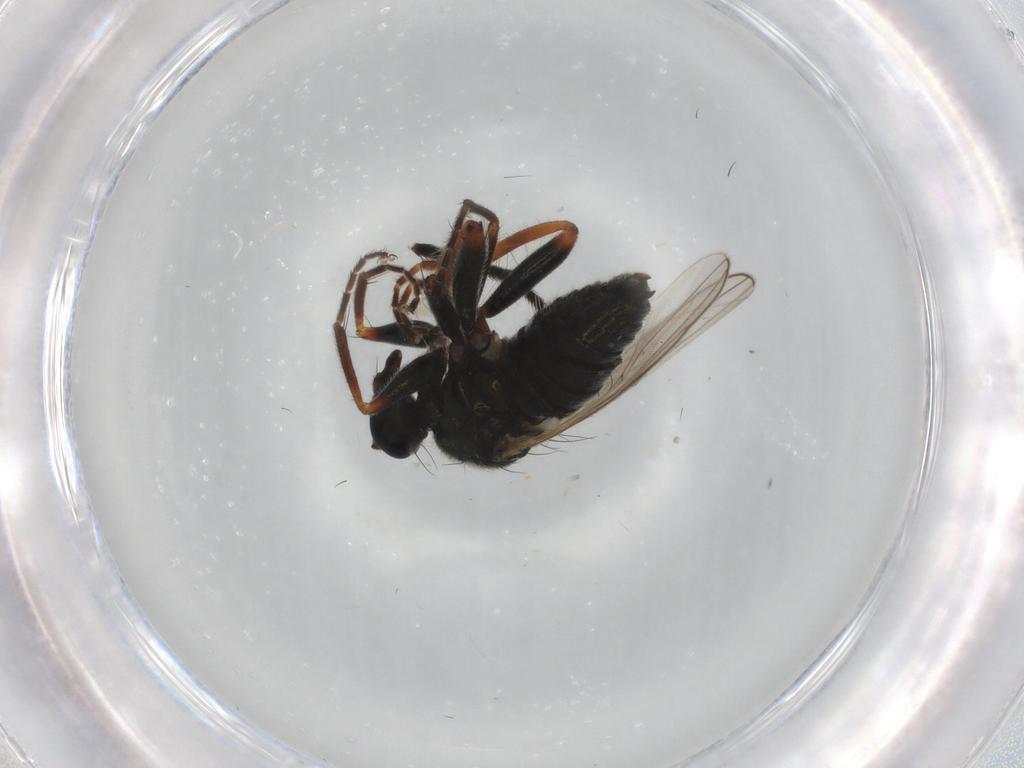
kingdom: Animalia
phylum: Arthropoda
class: Insecta
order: Diptera
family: Hybotidae
